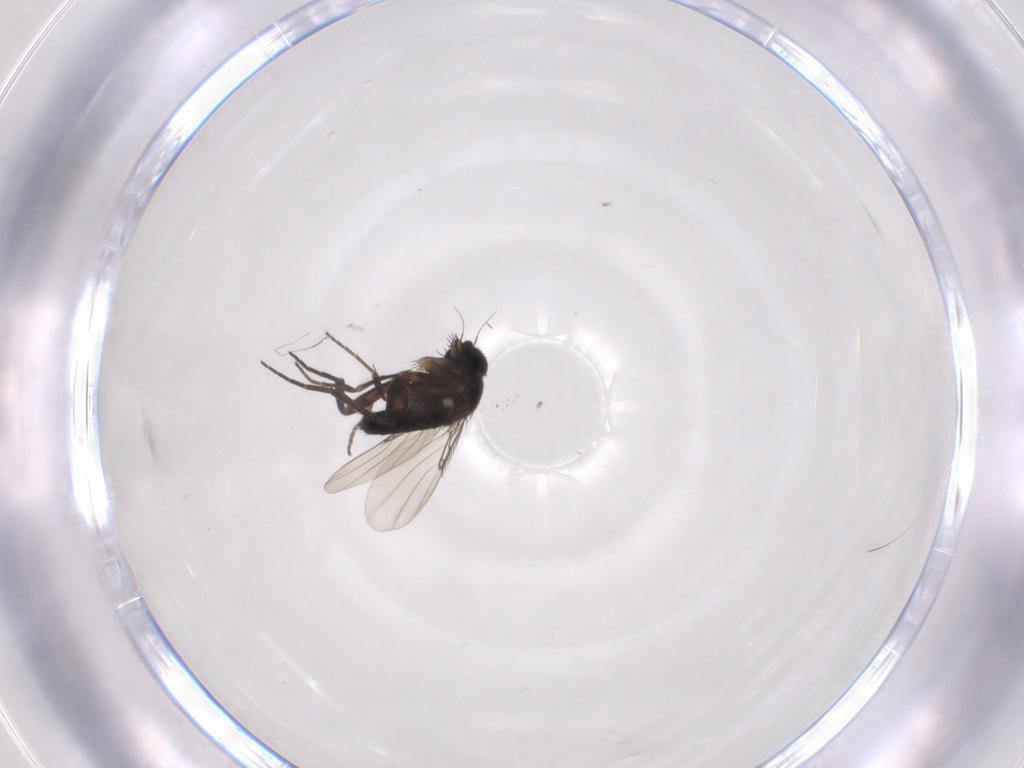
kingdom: Animalia
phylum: Arthropoda
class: Insecta
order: Diptera
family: Phoridae
